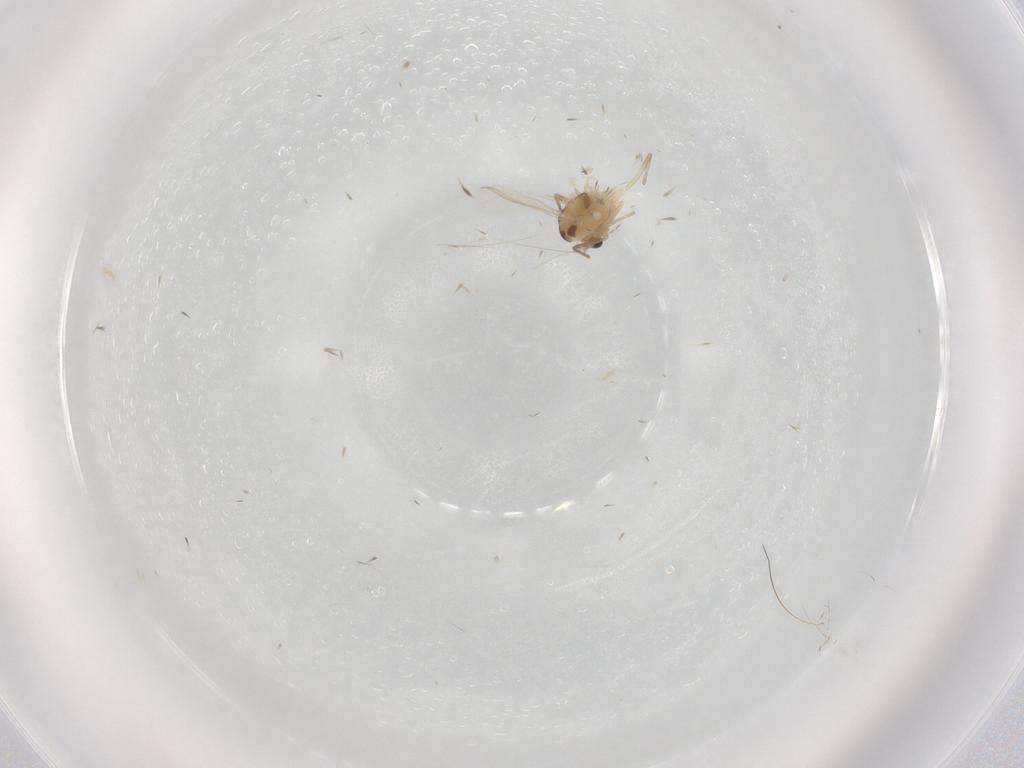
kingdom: Animalia
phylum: Arthropoda
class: Insecta
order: Diptera
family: Chironomidae
